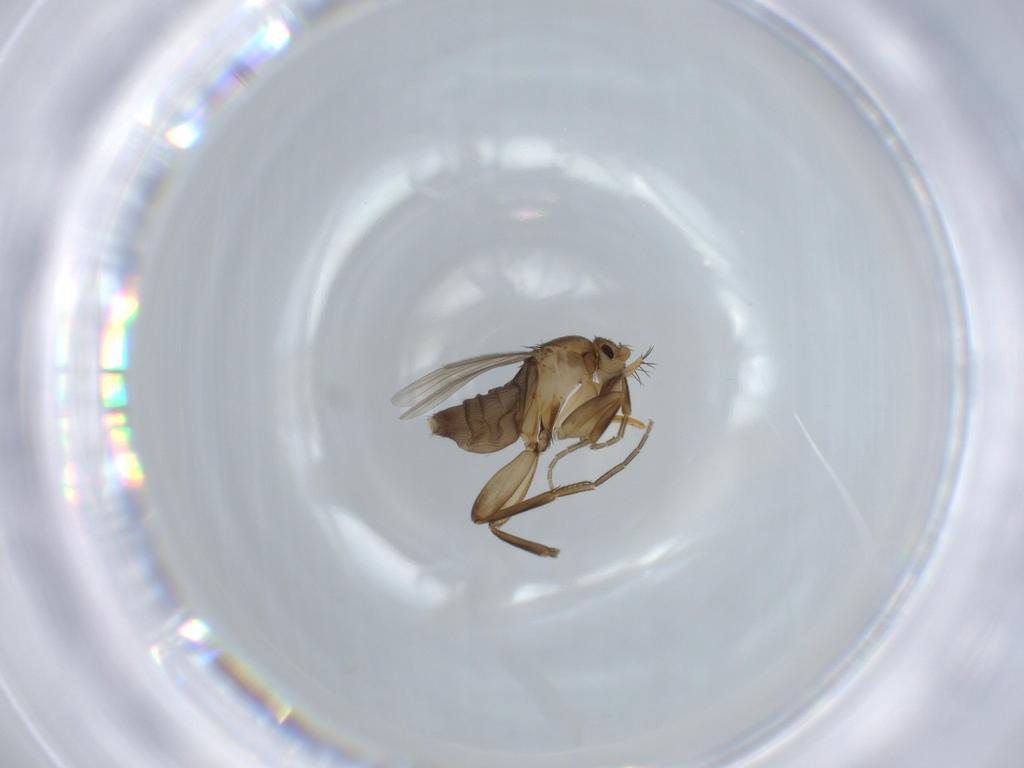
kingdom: Animalia
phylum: Arthropoda
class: Insecta
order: Diptera
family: Phoridae
